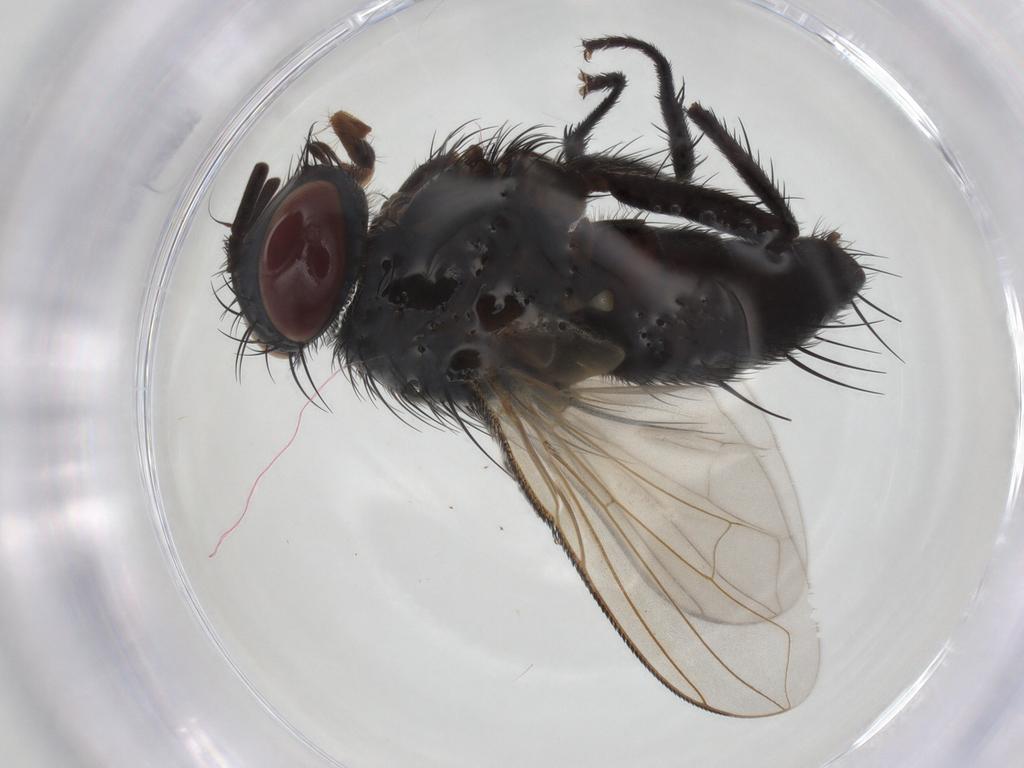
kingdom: Animalia
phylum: Arthropoda
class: Insecta
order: Diptera
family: Tachinidae
